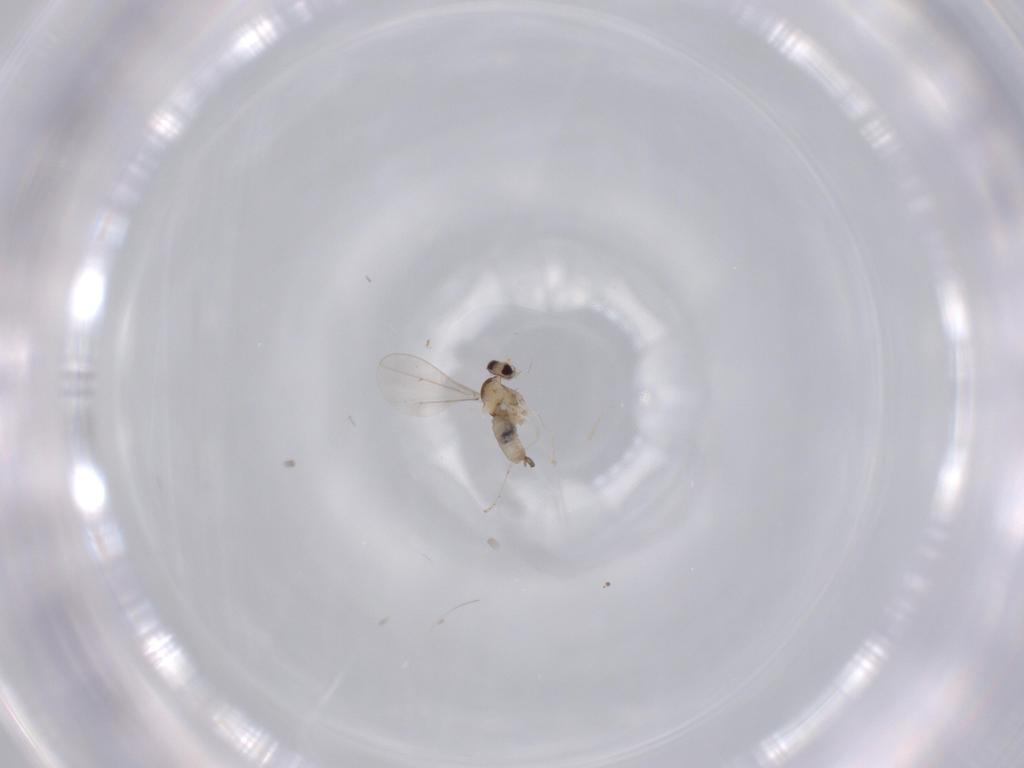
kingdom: Animalia
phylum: Arthropoda
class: Insecta
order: Diptera
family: Cecidomyiidae
